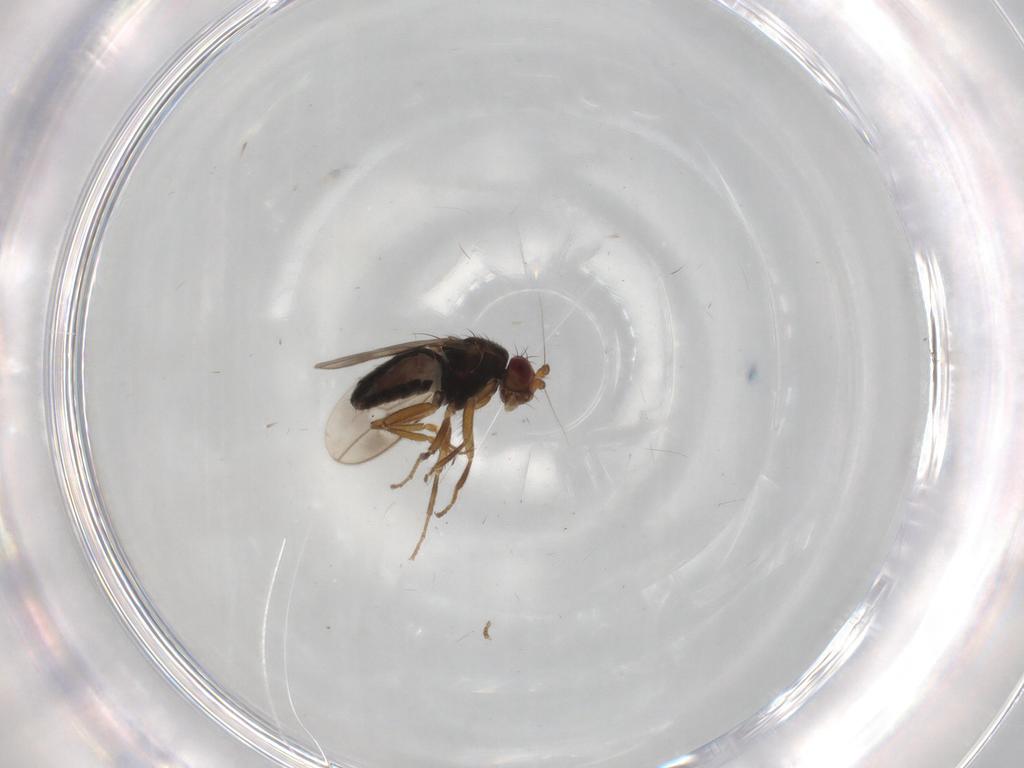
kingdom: Animalia
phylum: Arthropoda
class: Insecta
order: Diptera
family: Sphaeroceridae
